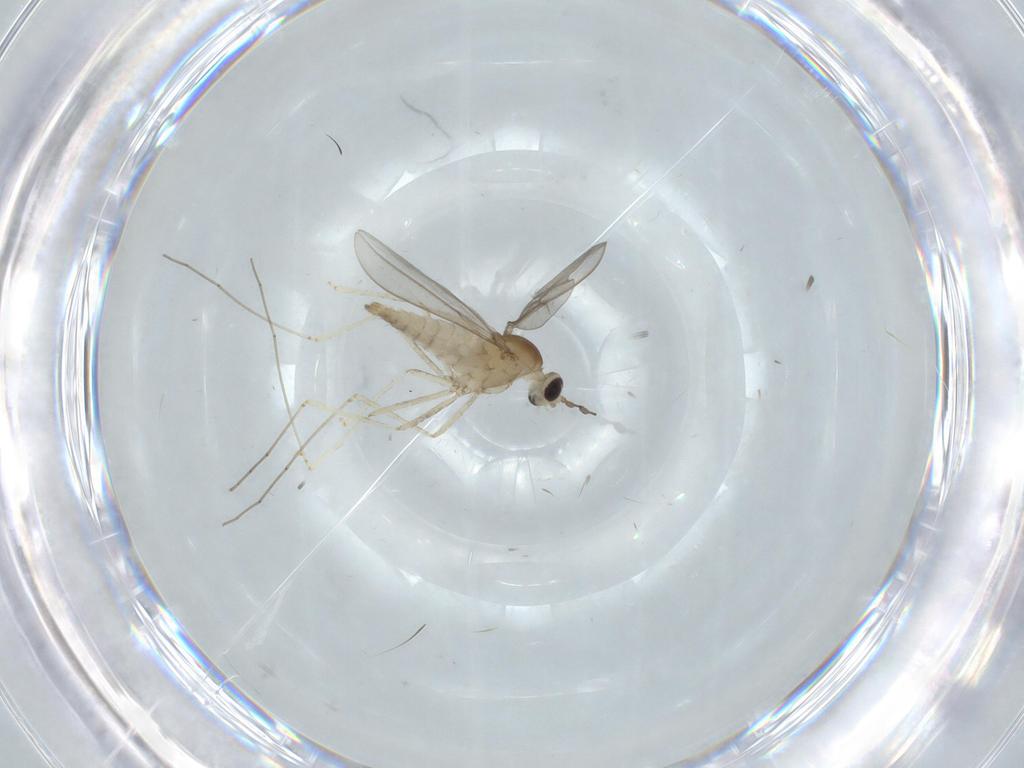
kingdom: Animalia
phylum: Arthropoda
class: Insecta
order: Diptera
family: Cecidomyiidae
